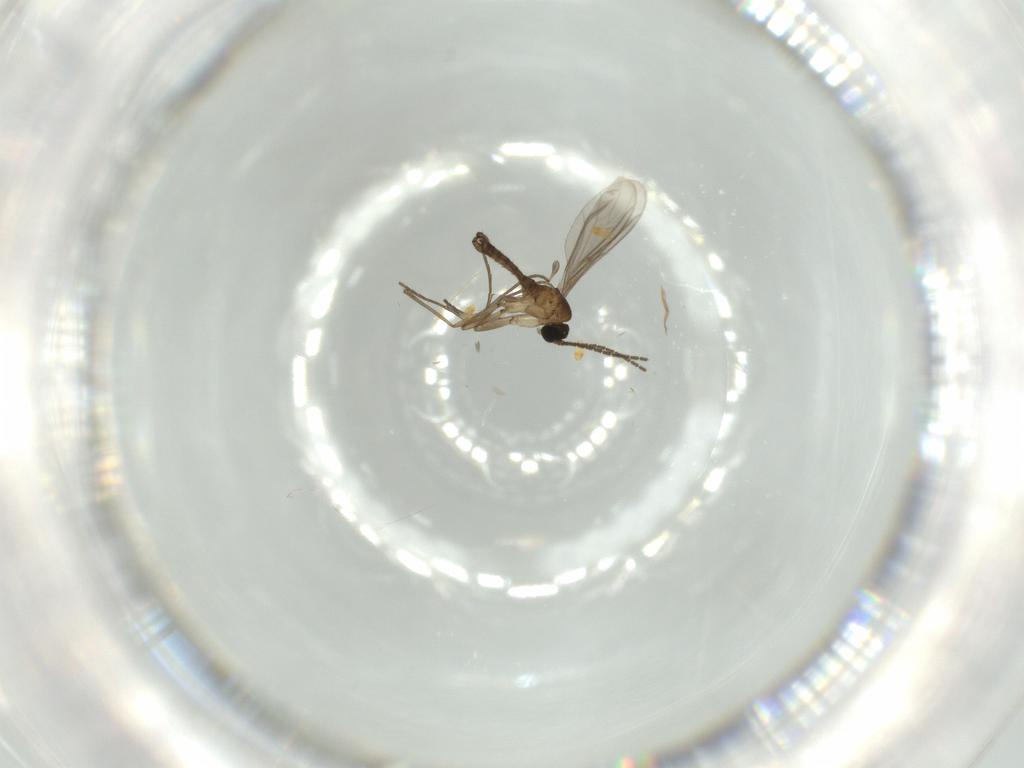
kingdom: Animalia
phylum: Arthropoda
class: Insecta
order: Diptera
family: Sciaridae
